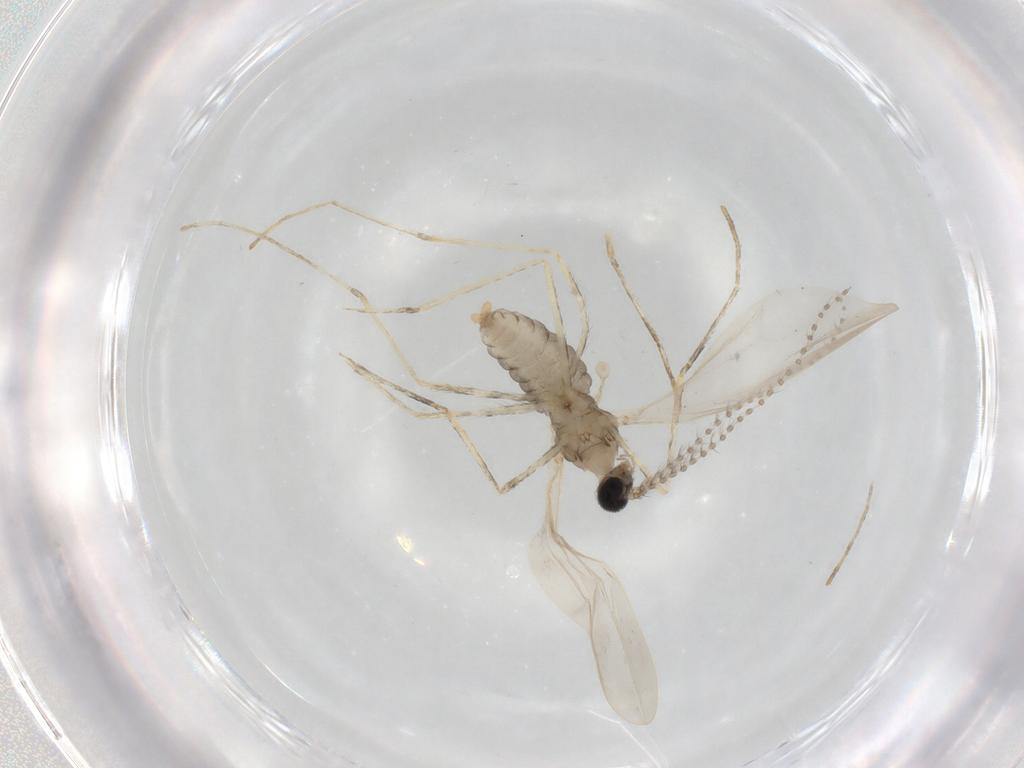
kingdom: Animalia
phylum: Arthropoda
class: Insecta
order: Diptera
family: Cecidomyiidae
